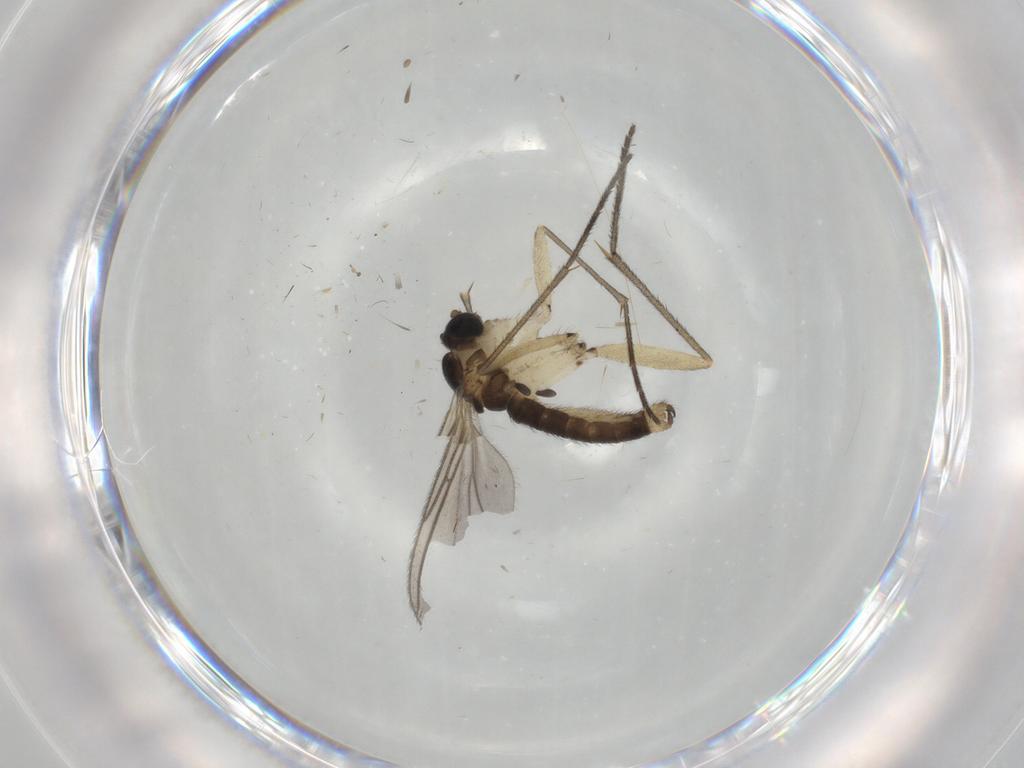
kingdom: Animalia
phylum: Arthropoda
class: Insecta
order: Diptera
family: Sciaridae
